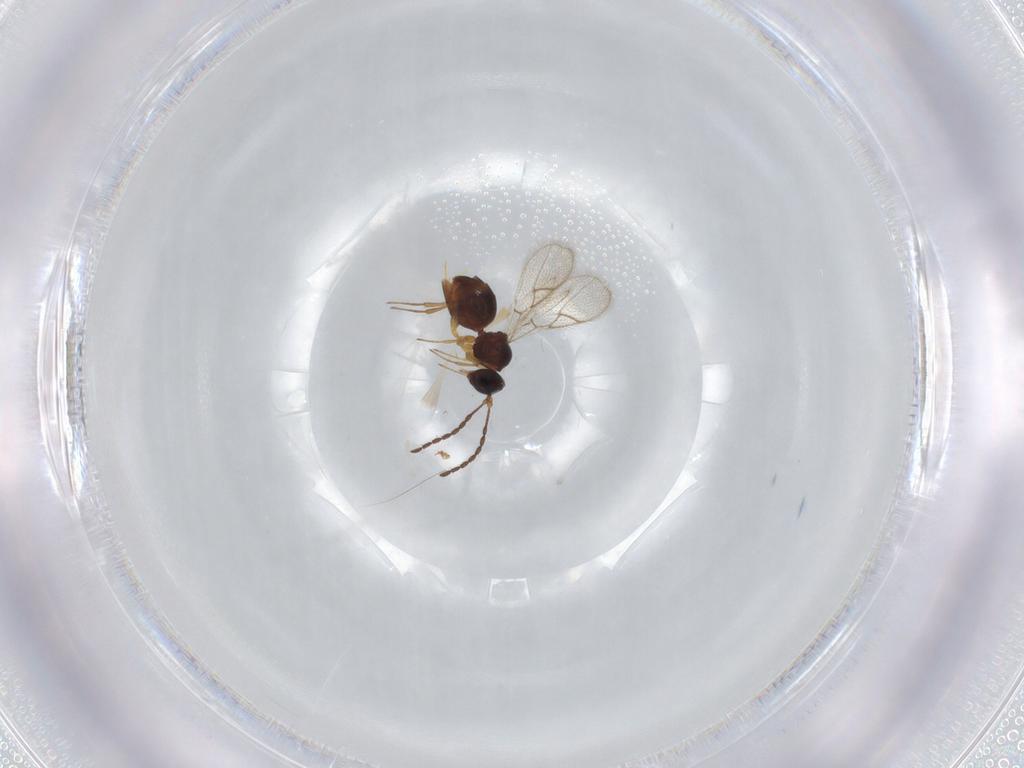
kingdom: Animalia
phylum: Arthropoda
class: Insecta
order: Hymenoptera
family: Figitidae
